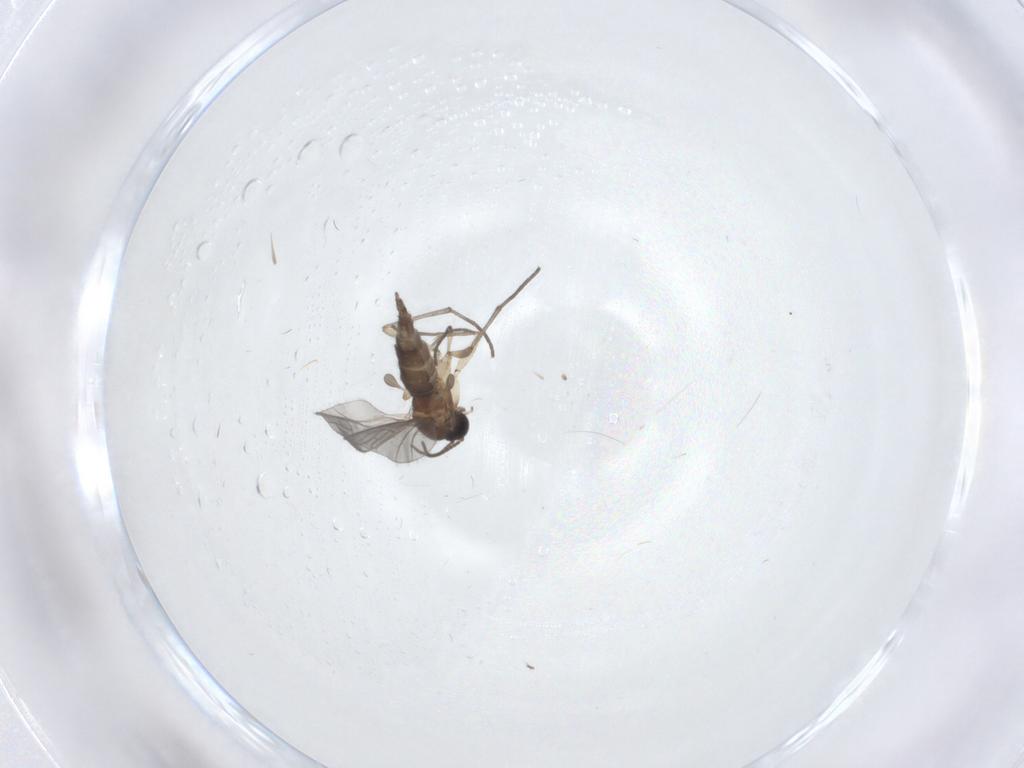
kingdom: Animalia
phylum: Arthropoda
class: Insecta
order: Diptera
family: Sciaridae
